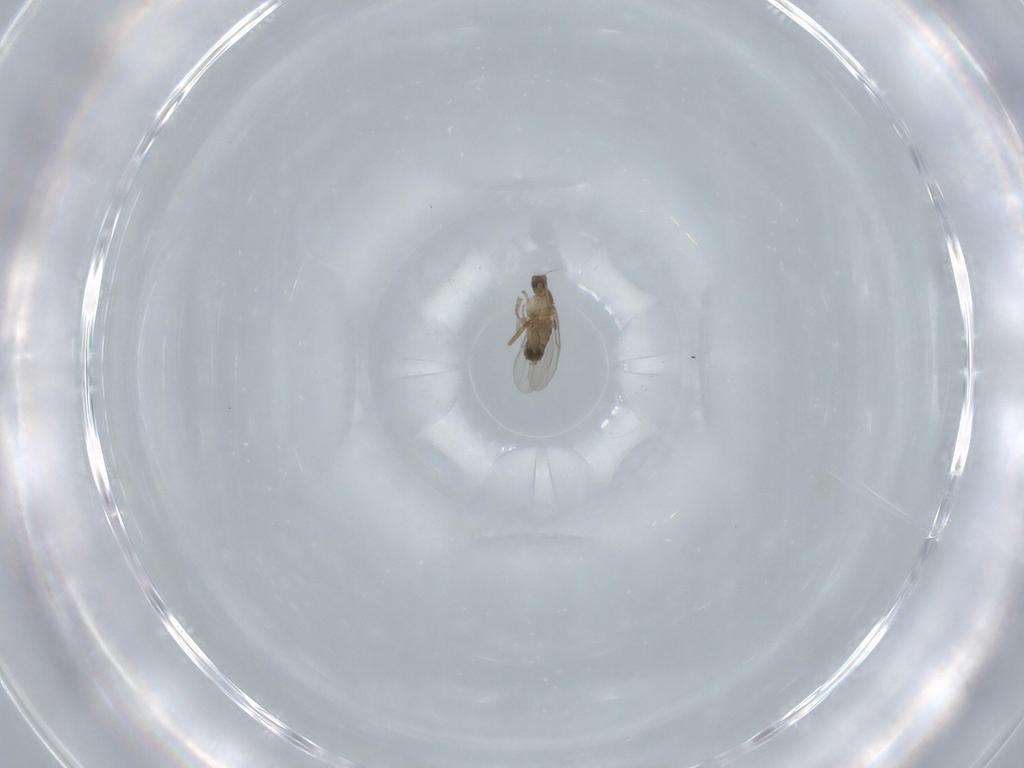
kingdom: Animalia
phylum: Arthropoda
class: Insecta
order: Diptera
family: Phoridae
